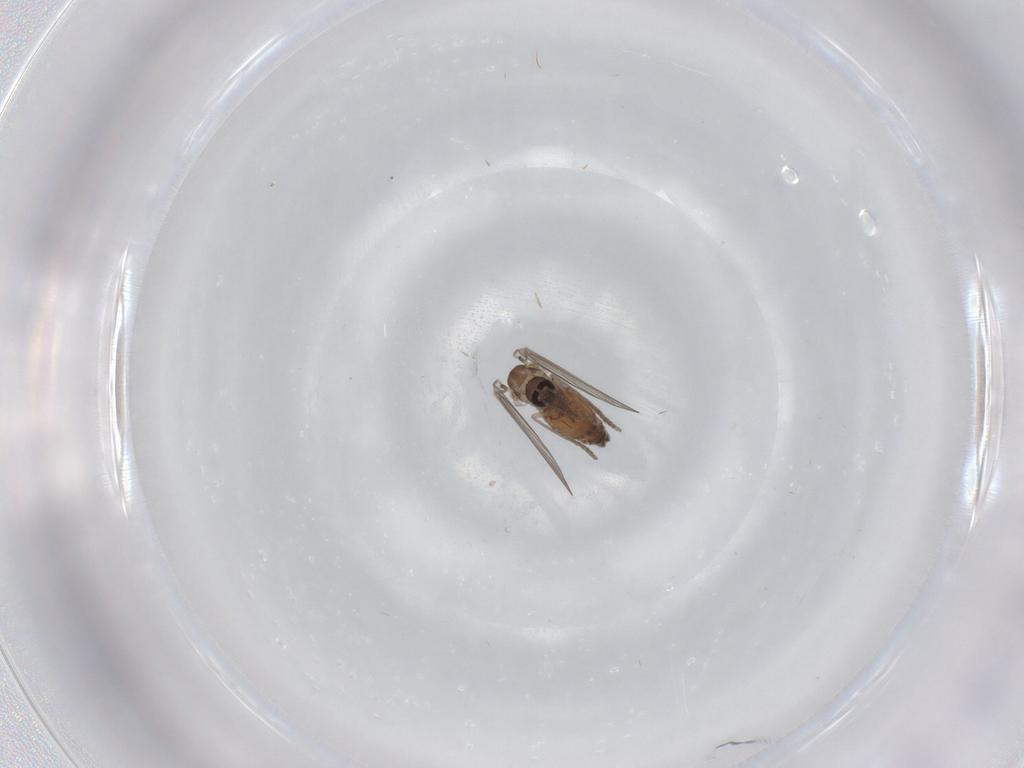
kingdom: Animalia
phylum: Arthropoda
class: Insecta
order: Diptera
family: Psychodidae
